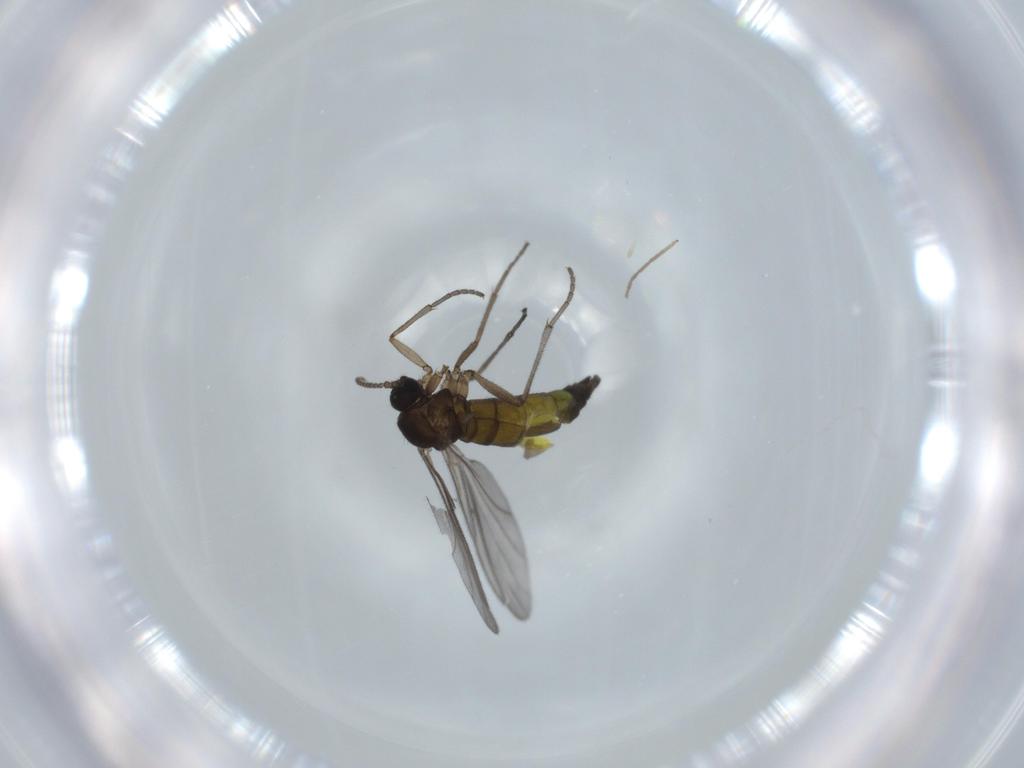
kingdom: Animalia
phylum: Arthropoda
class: Insecta
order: Diptera
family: Sciaridae
